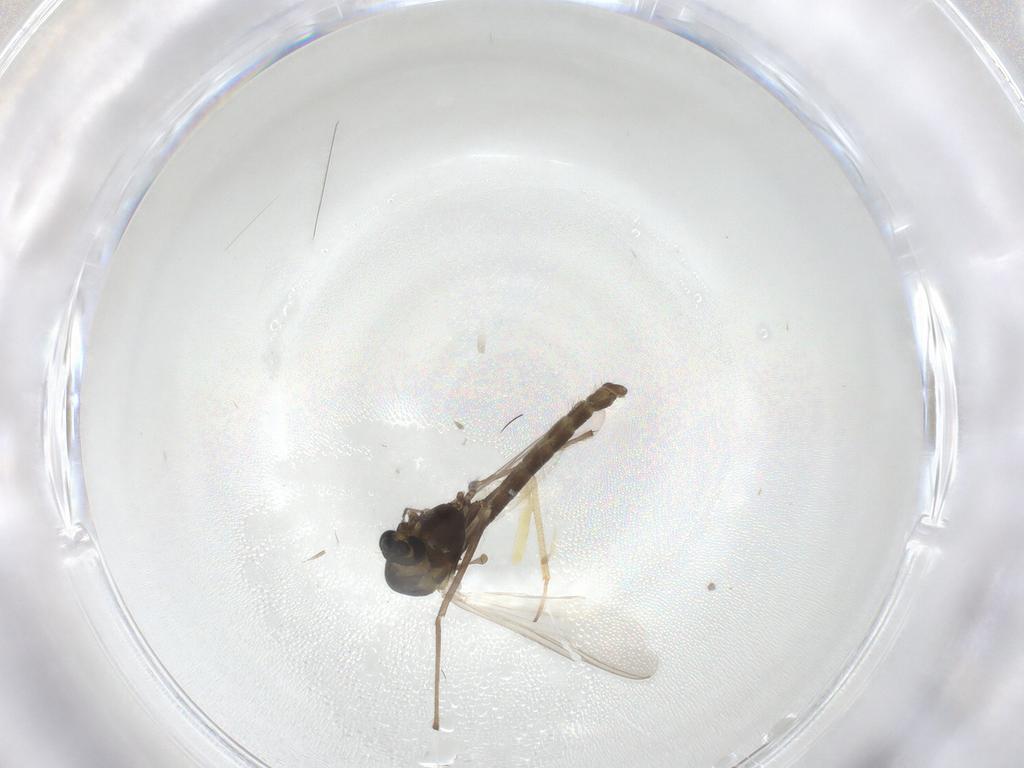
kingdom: Animalia
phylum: Arthropoda
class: Insecta
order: Diptera
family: Chironomidae
